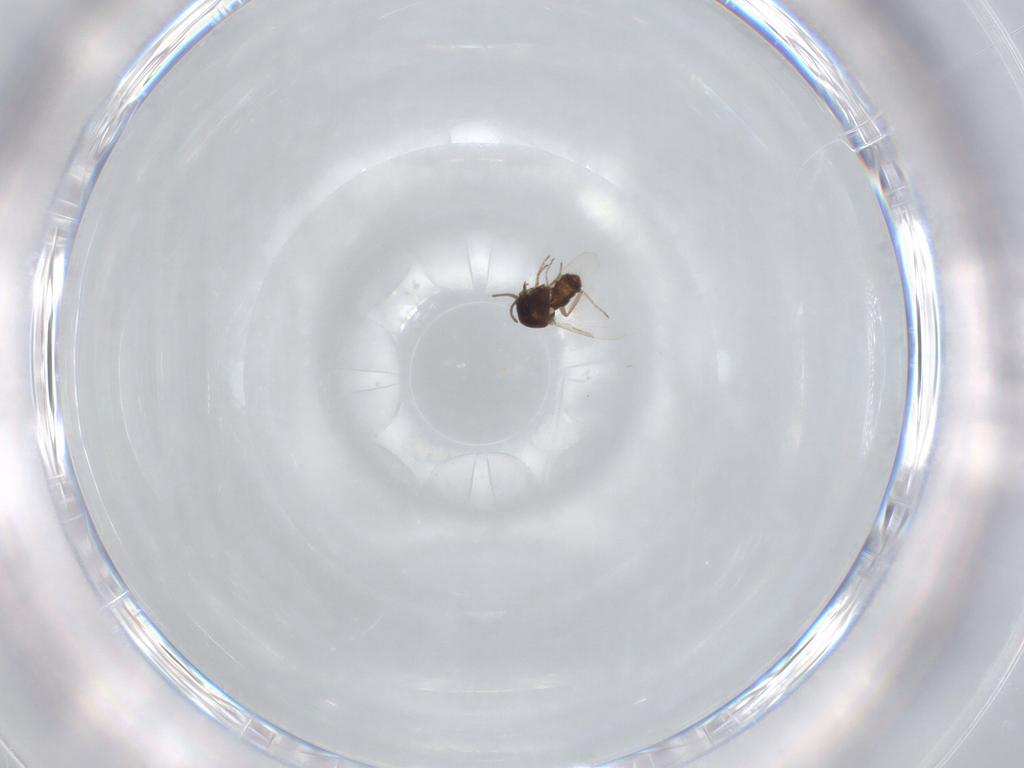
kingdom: Animalia
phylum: Arthropoda
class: Insecta
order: Diptera
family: Ceratopogonidae
